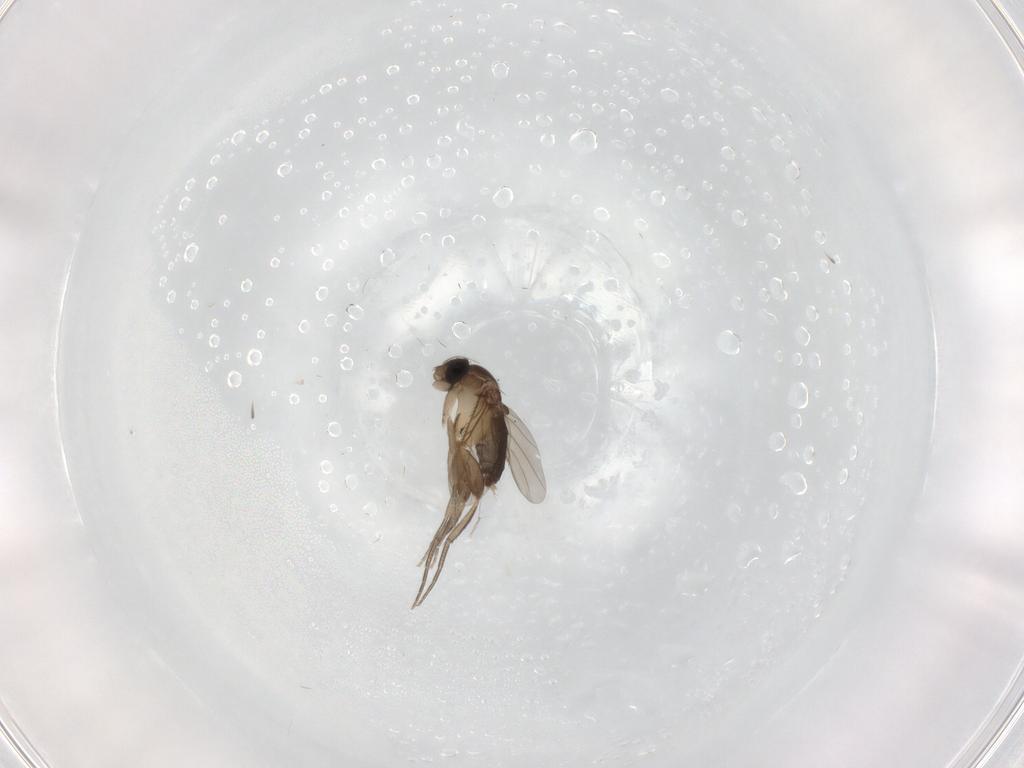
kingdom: Animalia
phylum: Arthropoda
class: Insecta
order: Diptera
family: Phoridae
